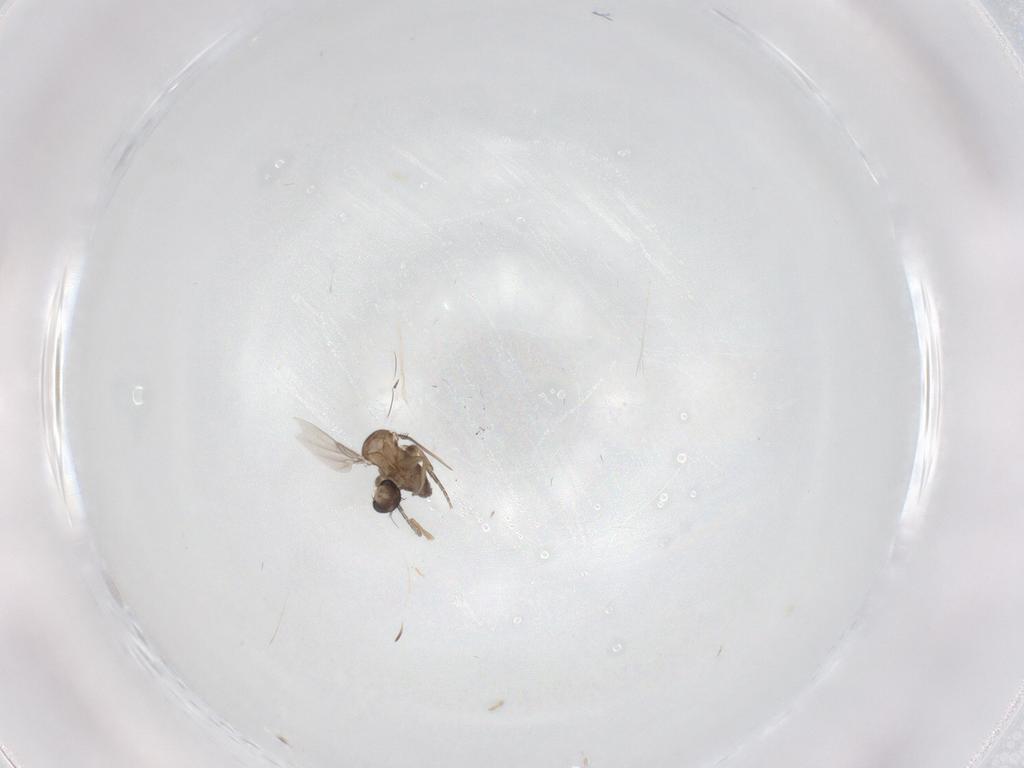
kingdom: Animalia
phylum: Arthropoda
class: Insecta
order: Diptera
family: Phoridae
